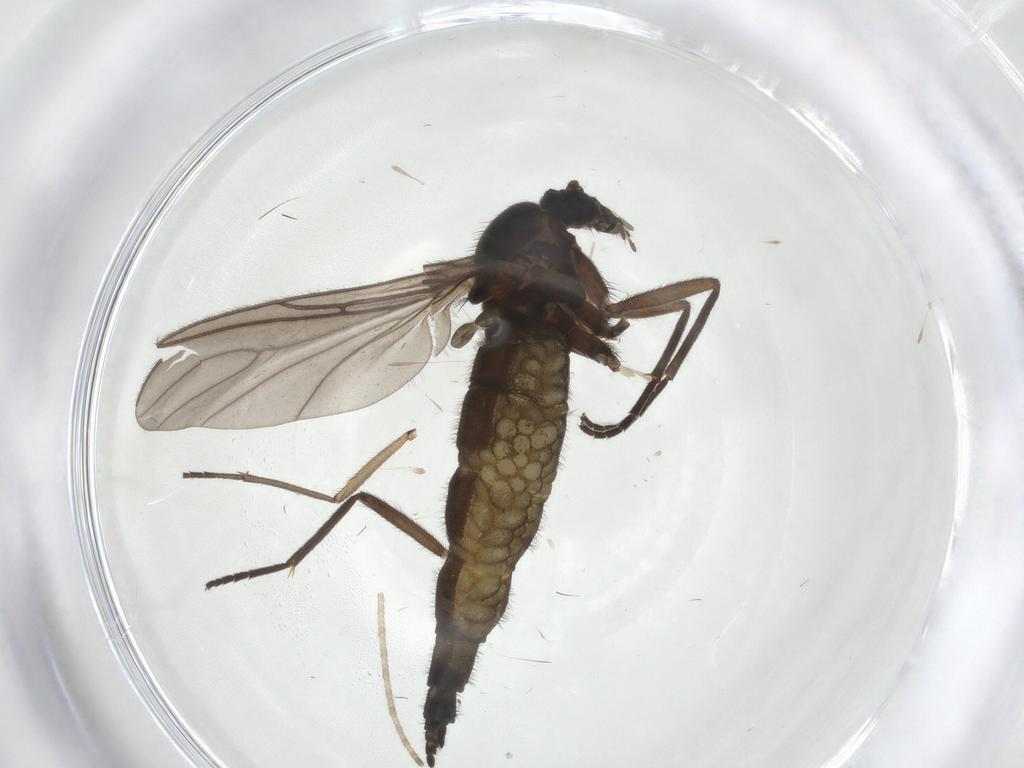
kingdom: Animalia
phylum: Arthropoda
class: Insecta
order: Diptera
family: Sciaridae
